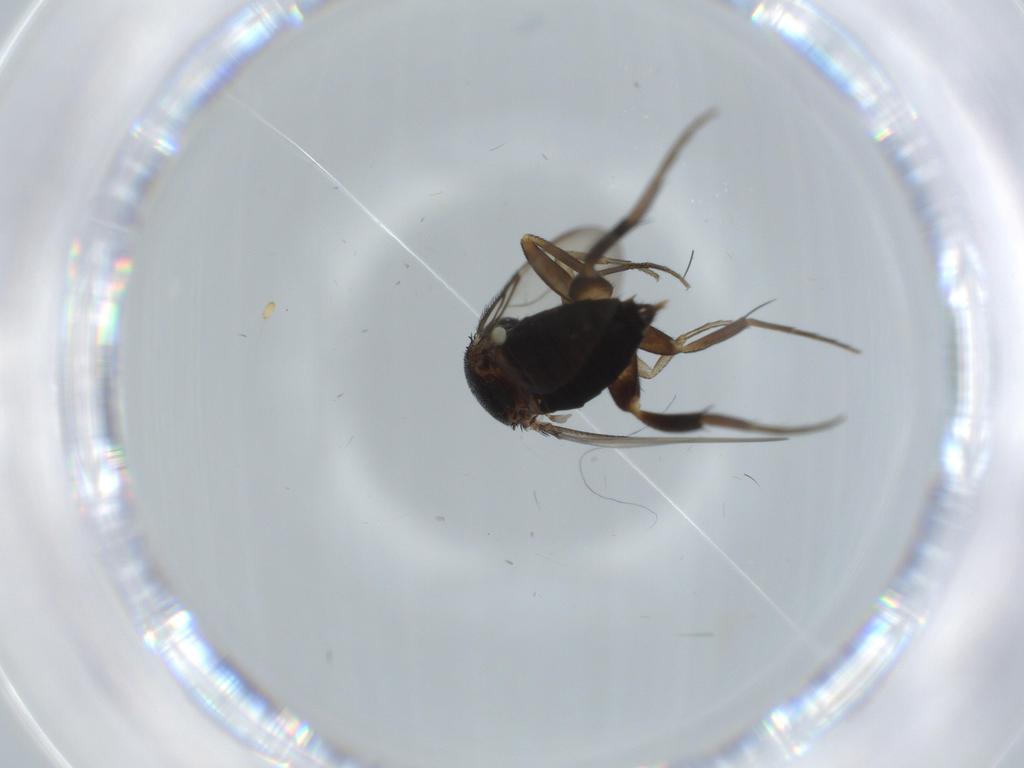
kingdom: Animalia
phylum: Arthropoda
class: Insecta
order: Diptera
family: Phoridae
